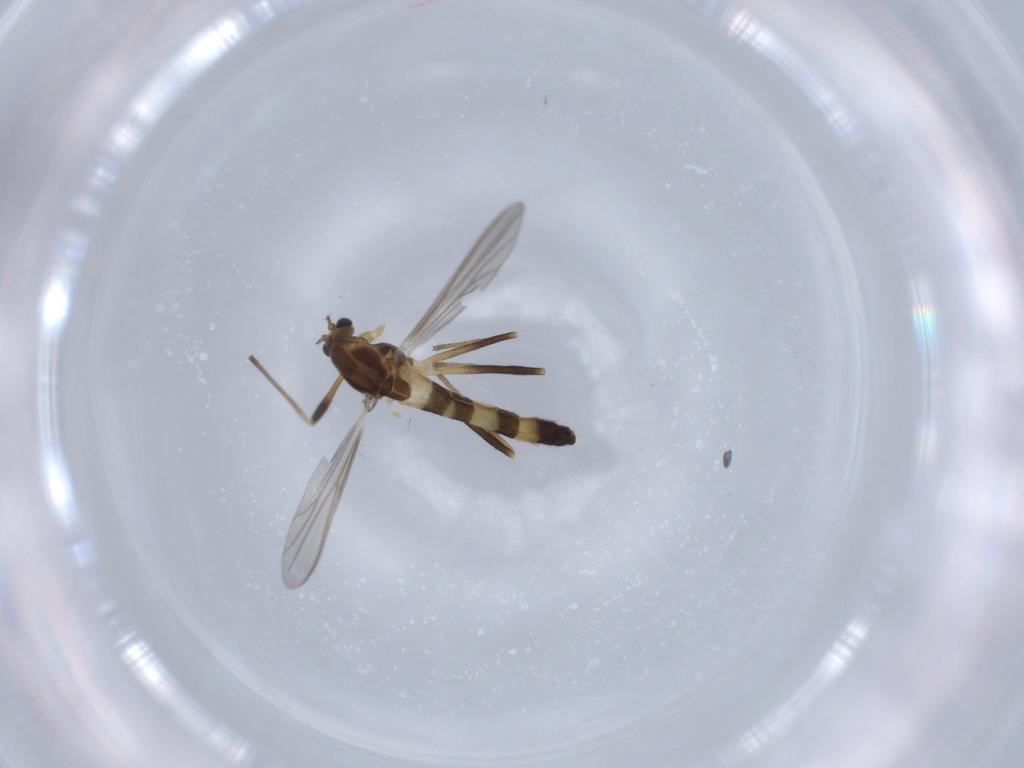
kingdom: Animalia
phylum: Arthropoda
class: Insecta
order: Diptera
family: Chironomidae
